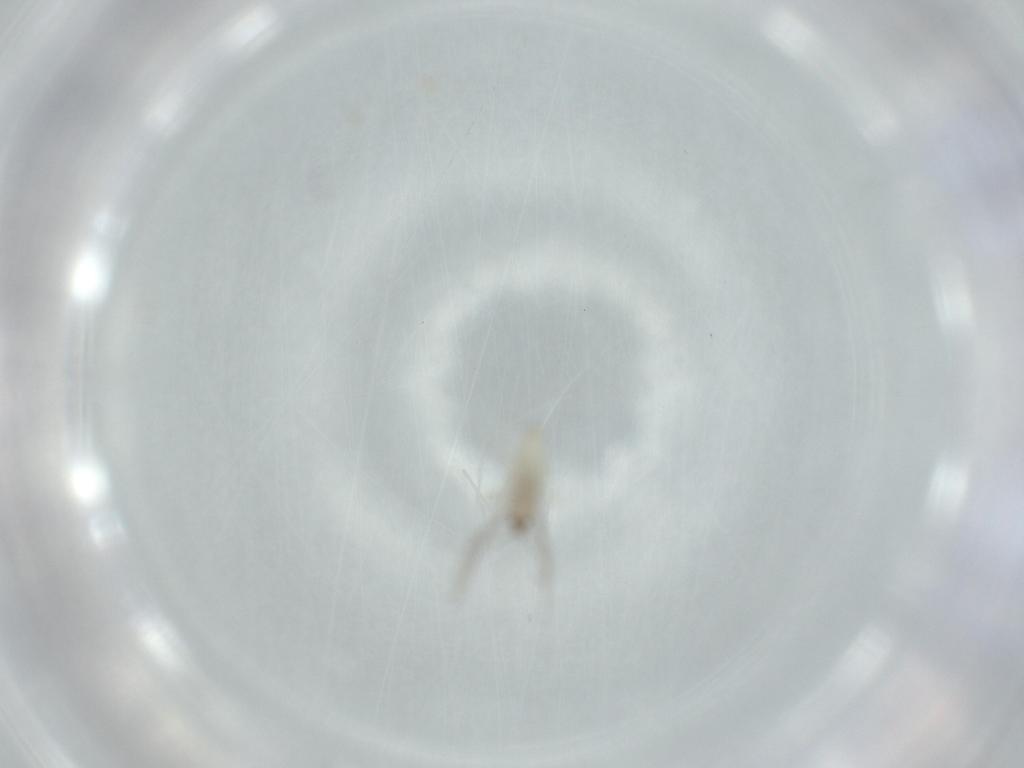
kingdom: Animalia
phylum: Arthropoda
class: Insecta
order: Diptera
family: Cecidomyiidae
